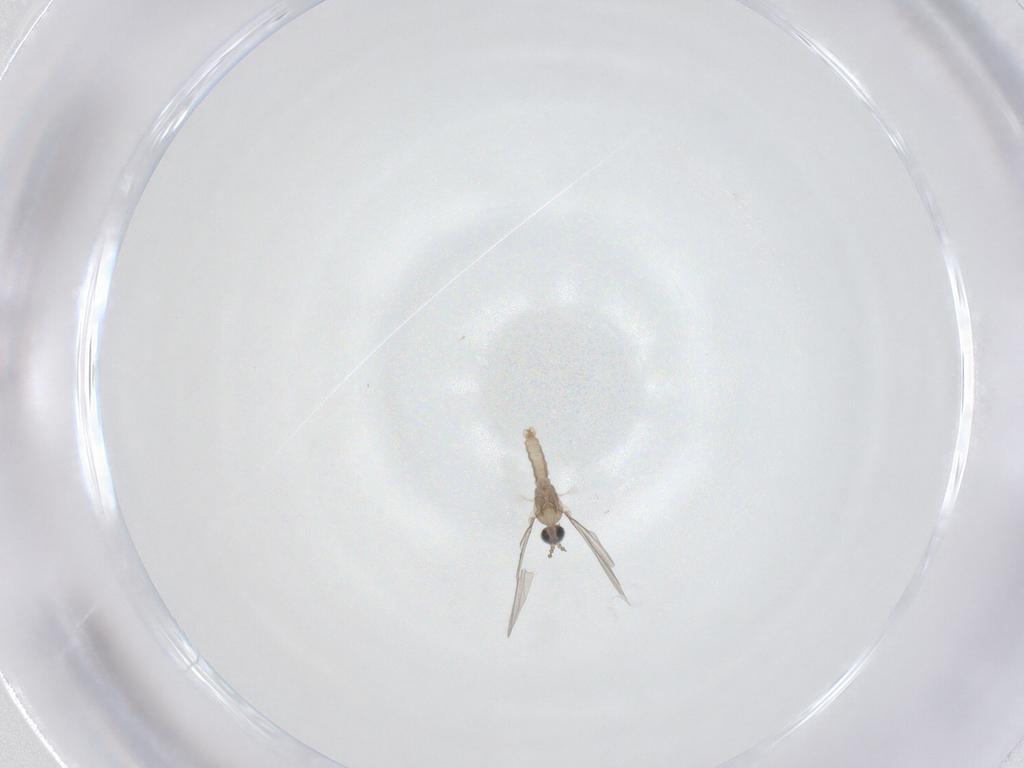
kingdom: Animalia
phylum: Arthropoda
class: Insecta
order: Diptera
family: Cecidomyiidae
